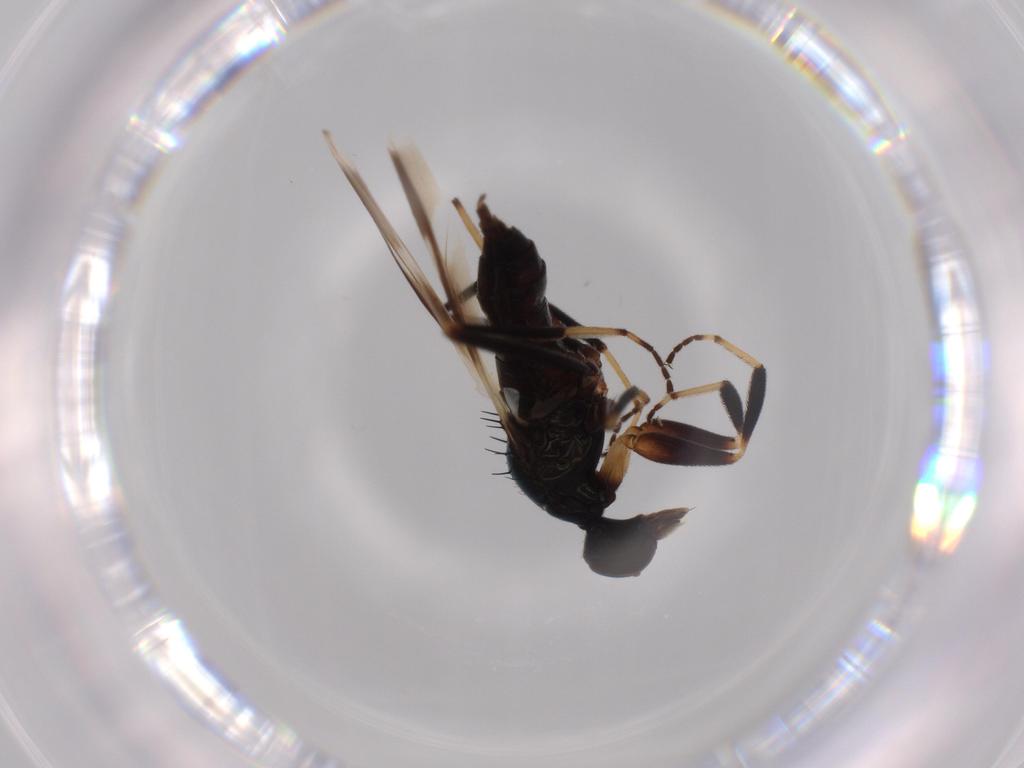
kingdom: Animalia
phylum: Arthropoda
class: Insecta
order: Diptera
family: Hybotidae
